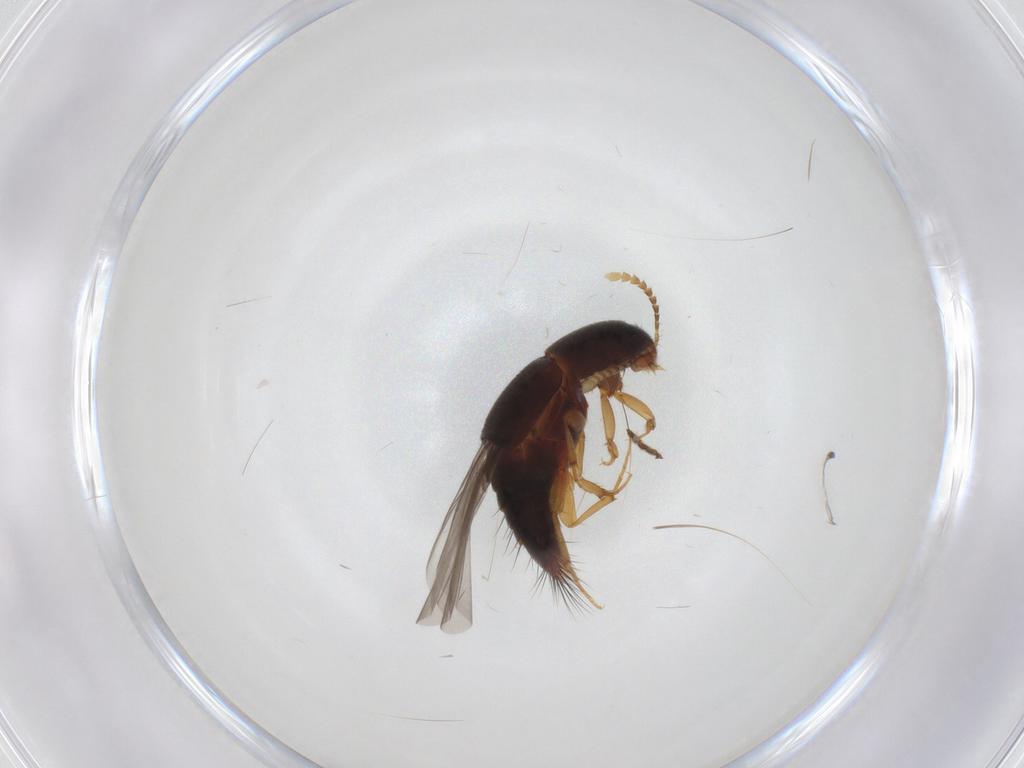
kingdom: Animalia
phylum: Arthropoda
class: Insecta
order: Coleoptera
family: Staphylinidae
